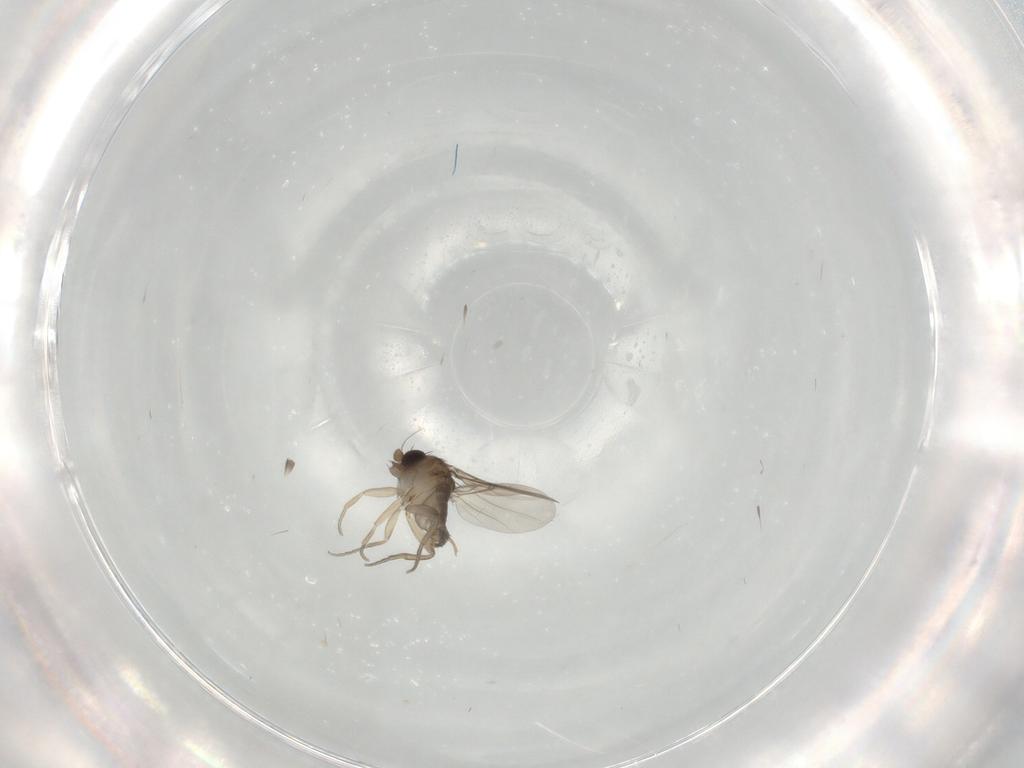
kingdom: Animalia
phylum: Arthropoda
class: Insecta
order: Diptera
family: Phoridae
